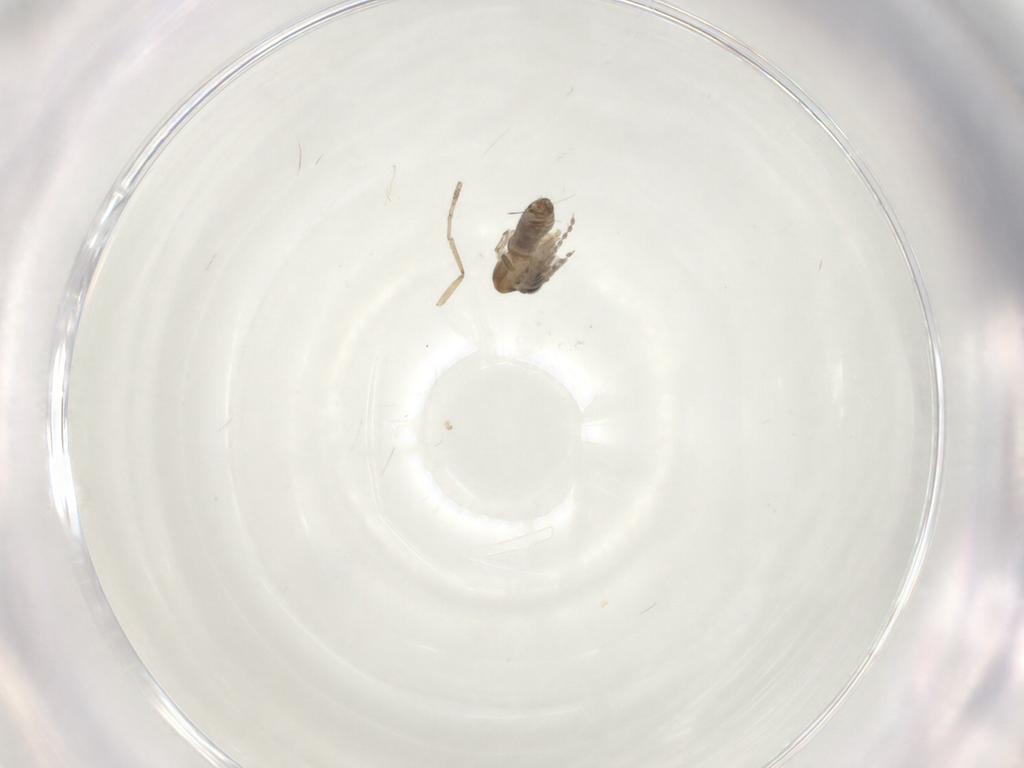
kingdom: Animalia
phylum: Arthropoda
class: Insecta
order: Diptera
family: Psychodidae
